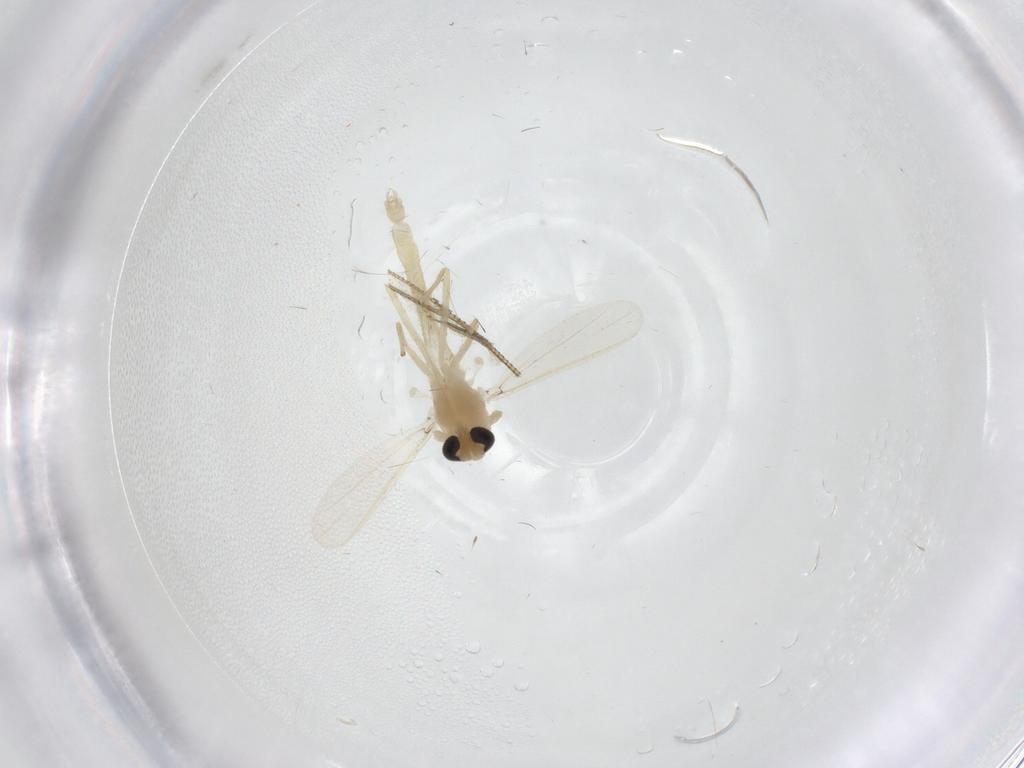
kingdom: Animalia
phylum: Arthropoda
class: Insecta
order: Diptera
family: Chironomidae
